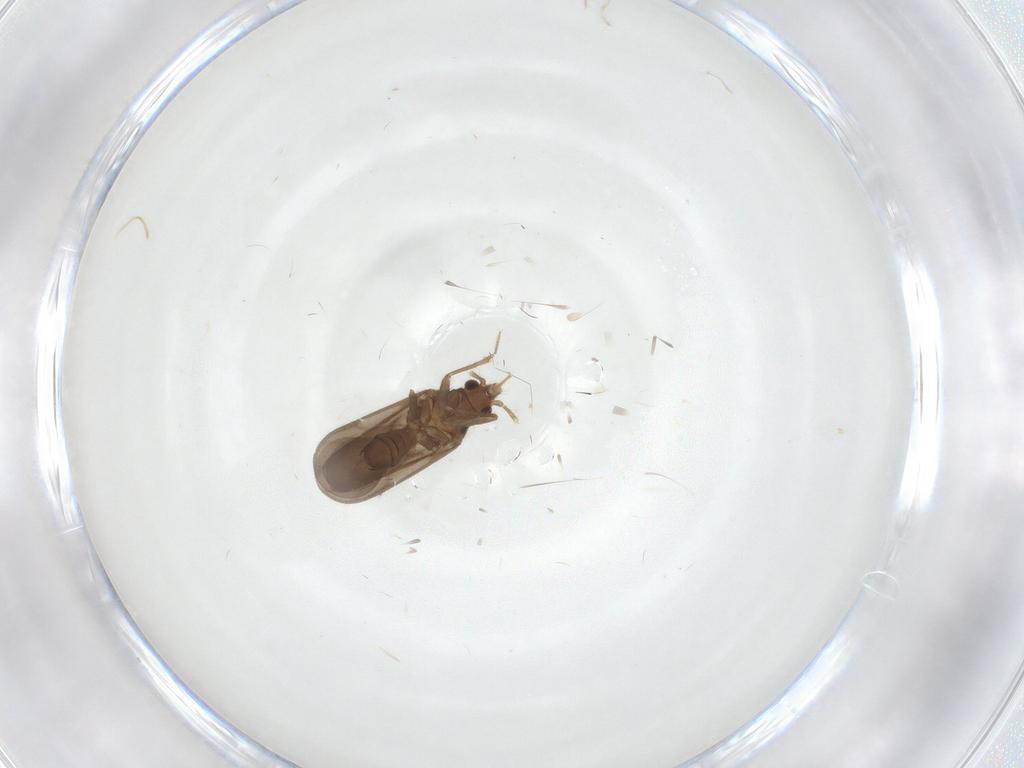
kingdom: Animalia
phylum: Arthropoda
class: Insecta
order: Hemiptera
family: Ceratocombidae
